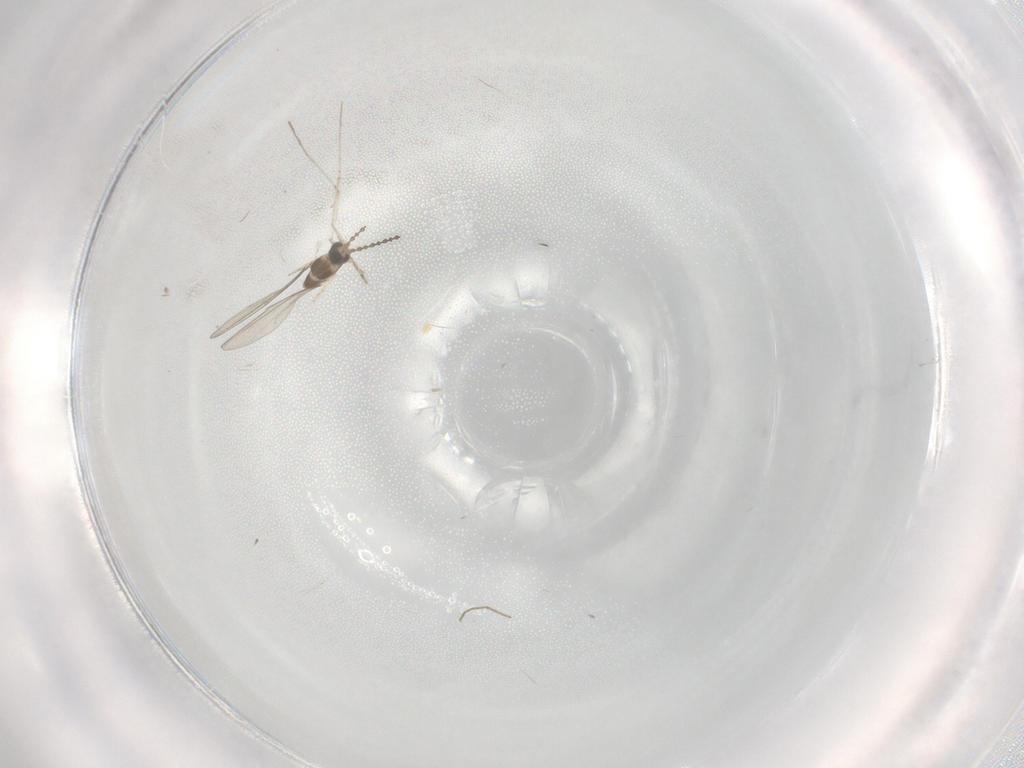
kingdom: Animalia
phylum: Arthropoda
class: Insecta
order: Diptera
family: Cecidomyiidae
